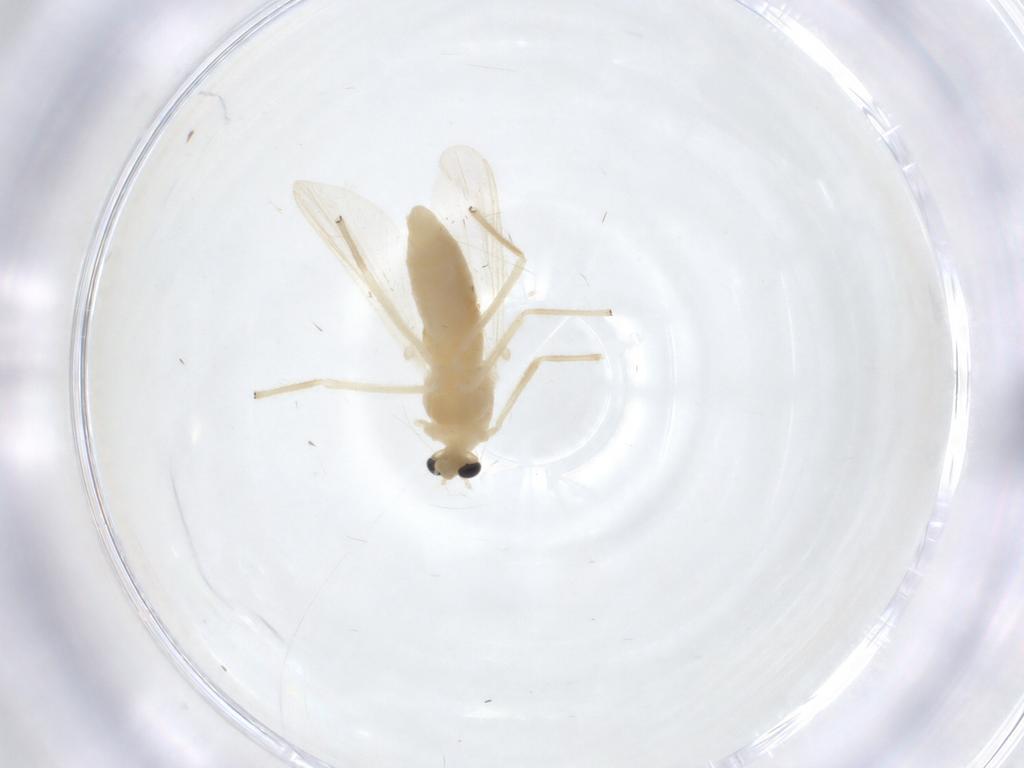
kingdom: Animalia
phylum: Arthropoda
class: Insecta
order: Diptera
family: Chironomidae
